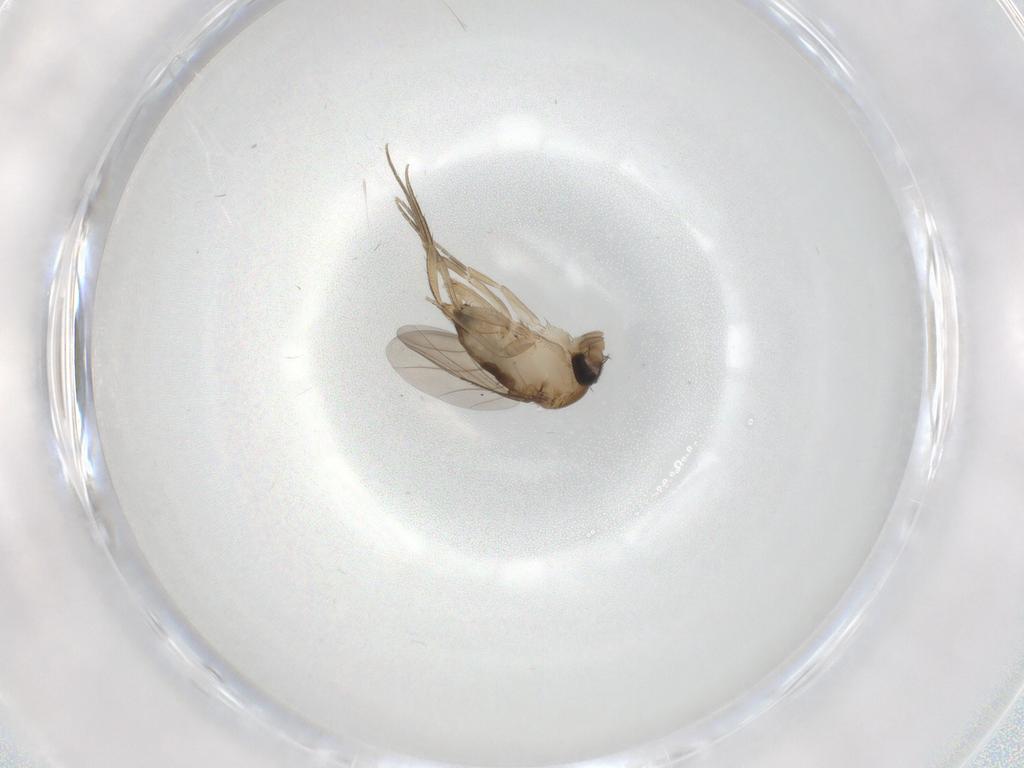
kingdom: Animalia
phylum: Arthropoda
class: Insecta
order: Diptera
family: Phoridae
